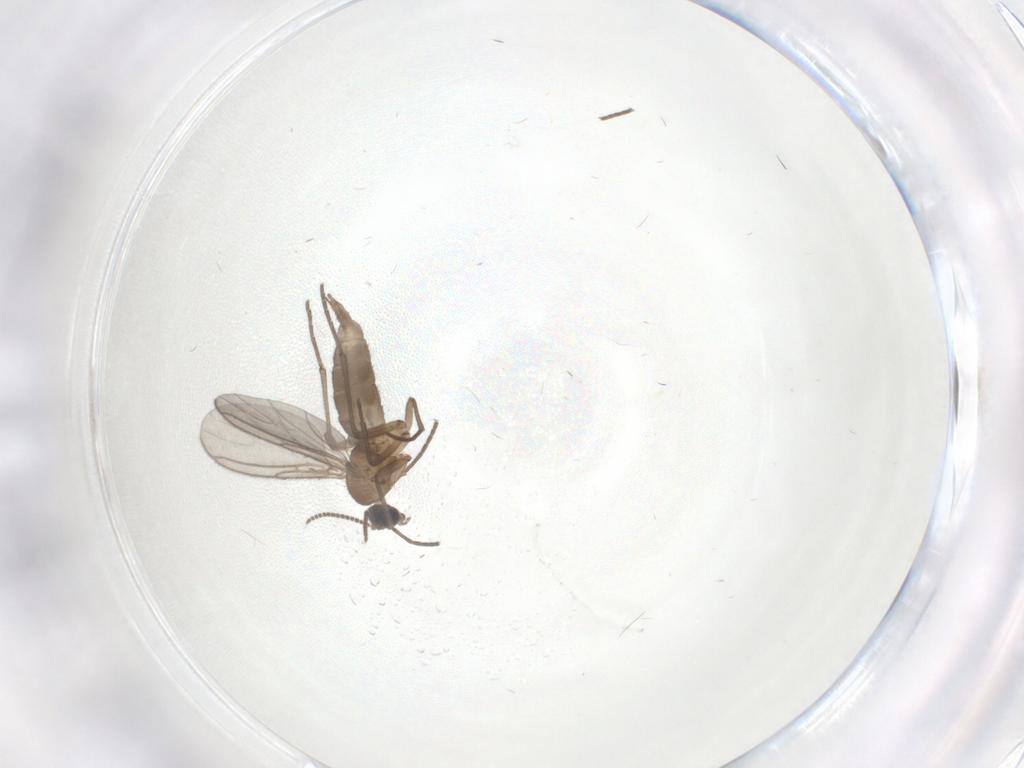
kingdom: Animalia
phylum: Arthropoda
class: Insecta
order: Diptera
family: Sciaridae
